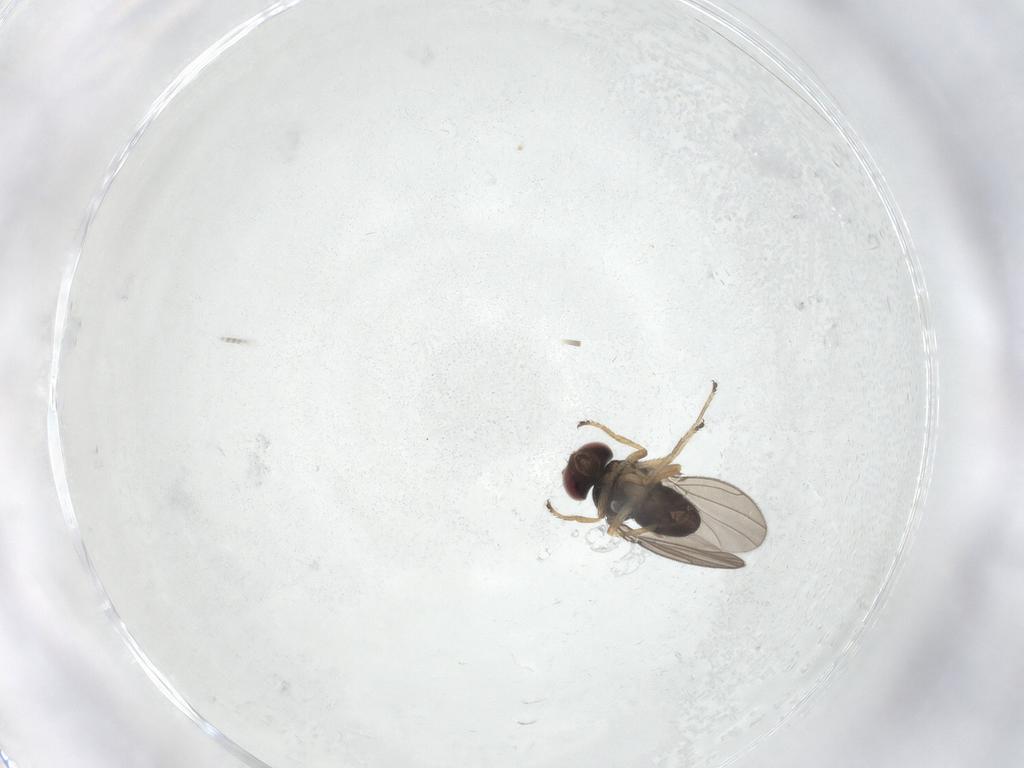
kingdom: Animalia
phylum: Arthropoda
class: Insecta
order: Diptera
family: Ephydridae
